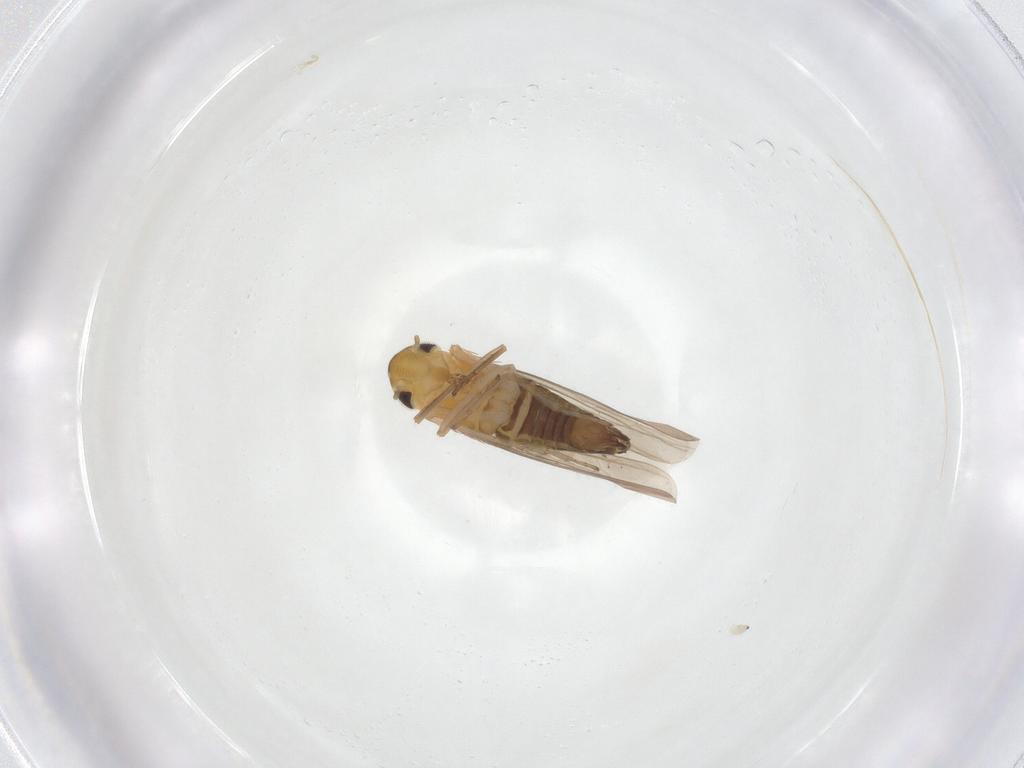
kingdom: Animalia
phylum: Arthropoda
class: Insecta
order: Hemiptera
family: Cicadellidae
